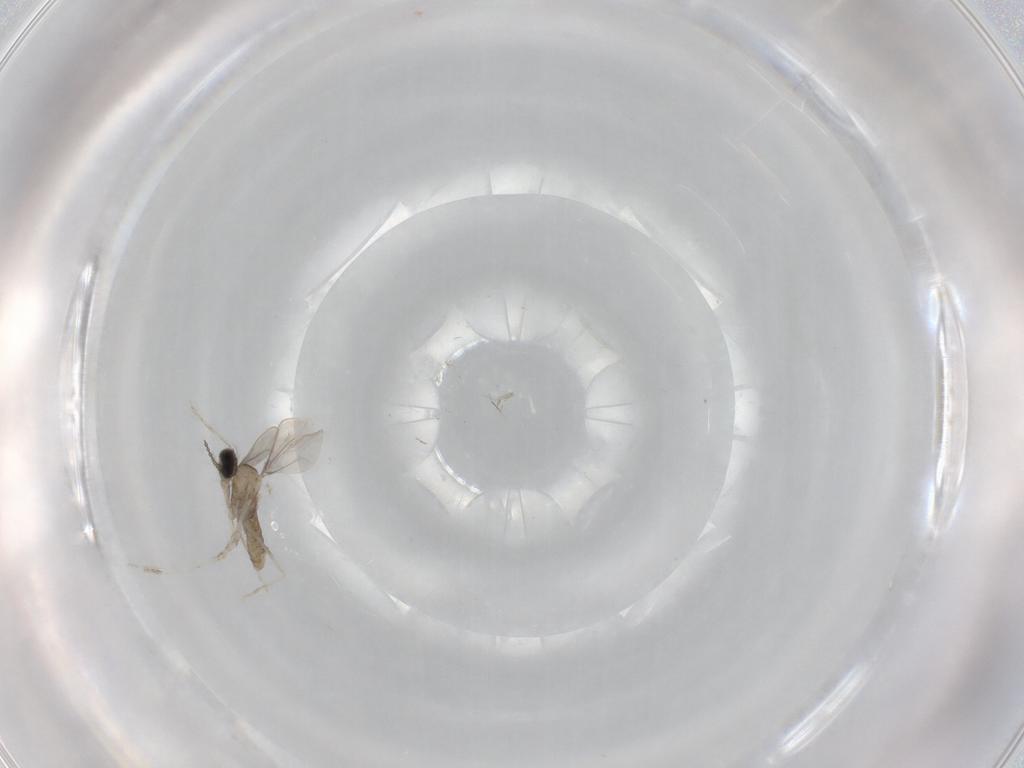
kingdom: Animalia
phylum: Arthropoda
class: Insecta
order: Diptera
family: Cecidomyiidae
